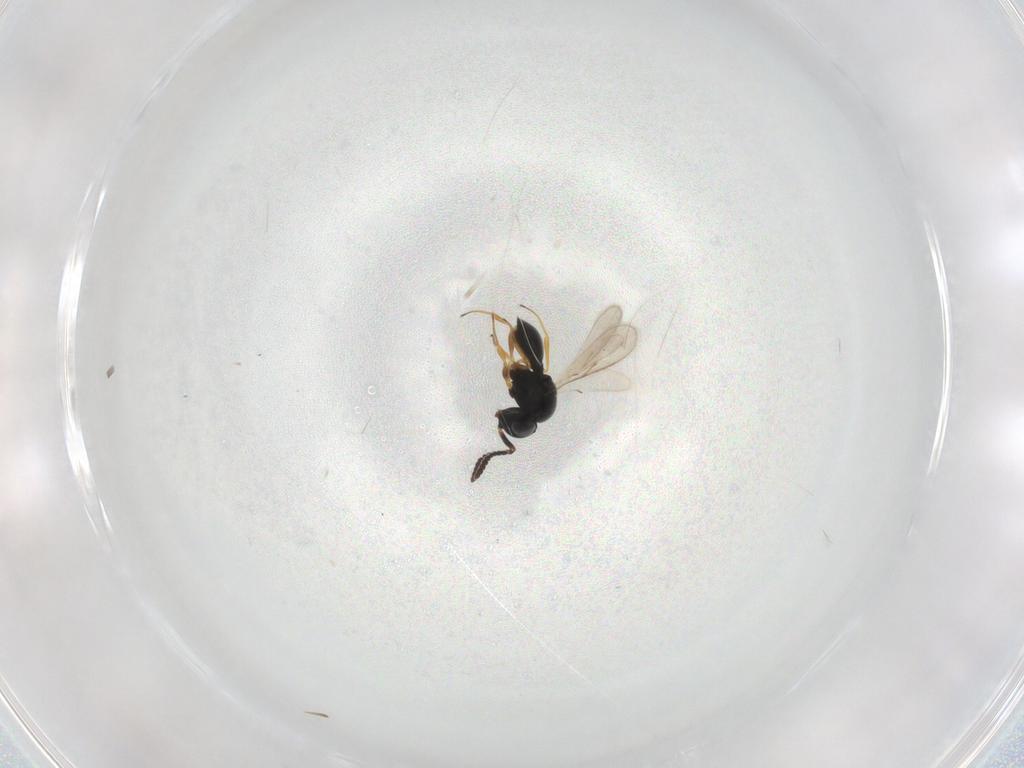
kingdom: Animalia
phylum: Arthropoda
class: Insecta
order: Hymenoptera
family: Scelionidae
